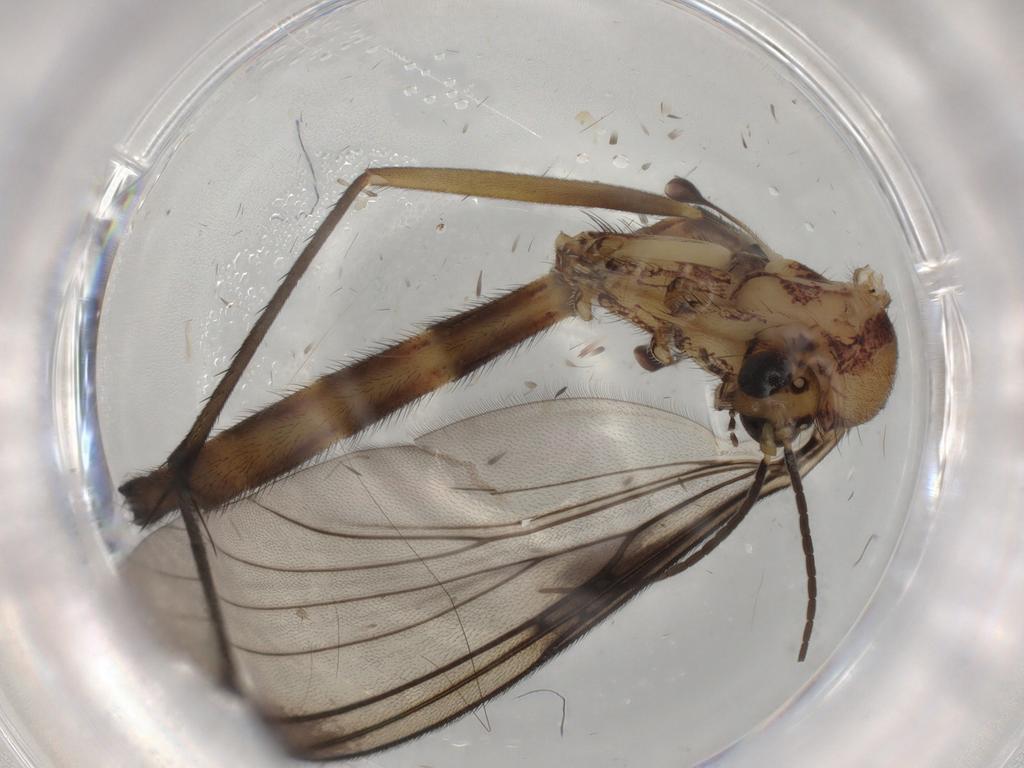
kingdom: Animalia
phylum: Arthropoda
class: Insecta
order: Diptera
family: Mycetophilidae
